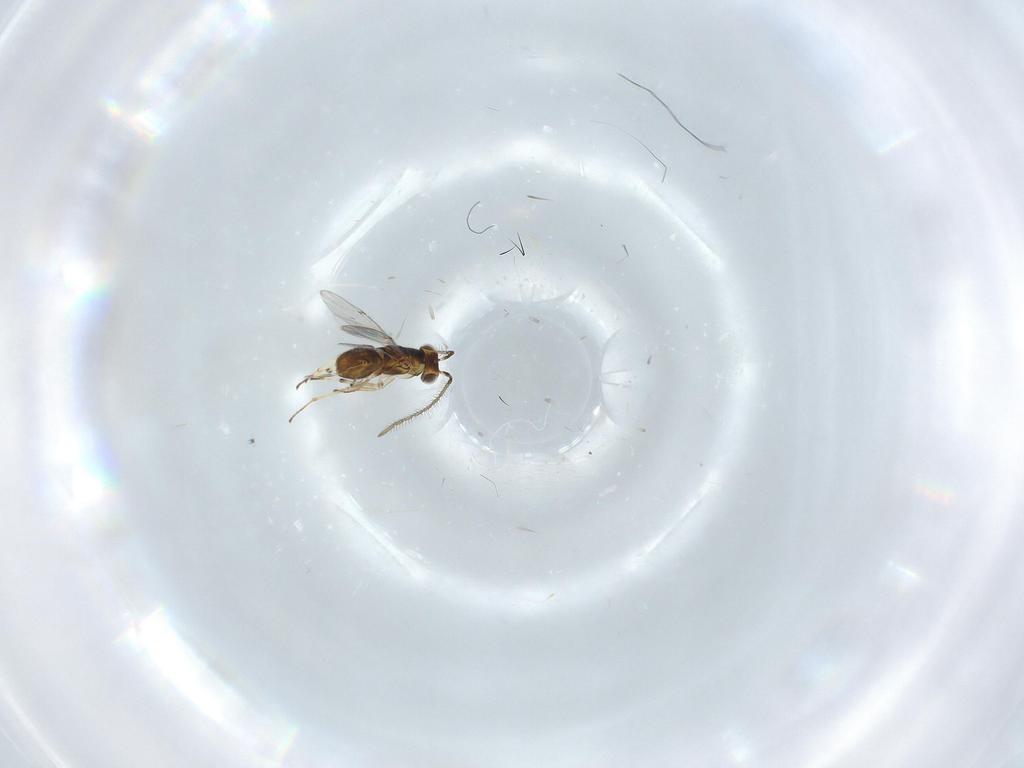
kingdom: Animalia
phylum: Arthropoda
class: Insecta
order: Hymenoptera
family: Encyrtidae
